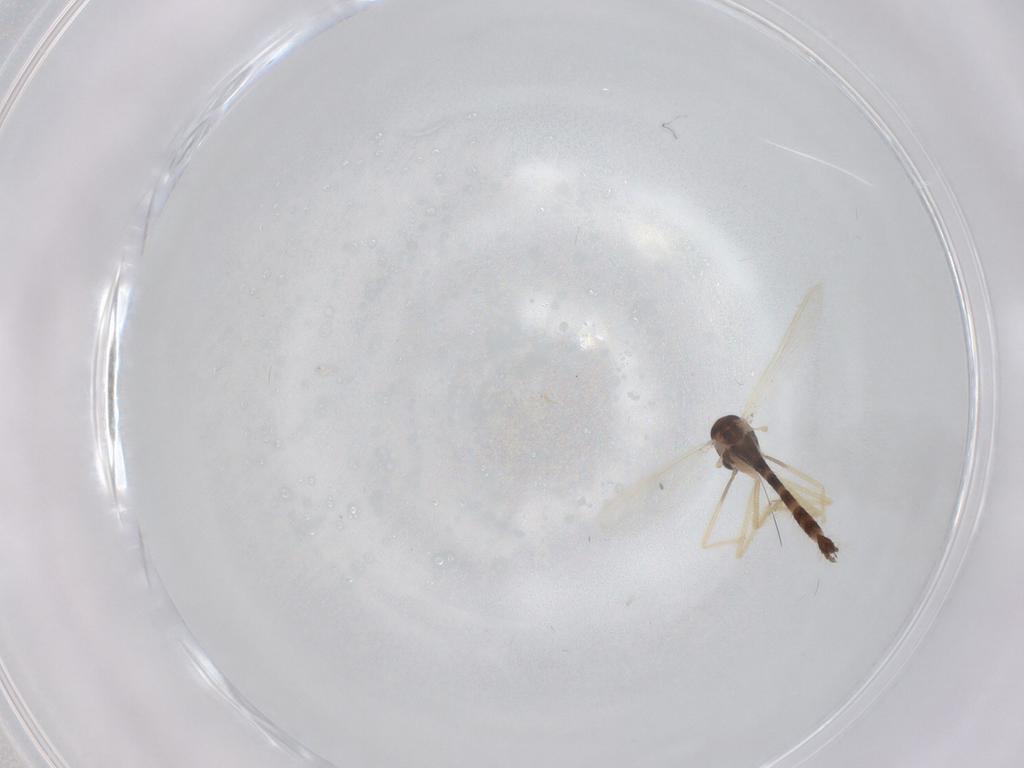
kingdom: Animalia
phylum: Arthropoda
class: Insecta
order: Diptera
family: Chironomidae
